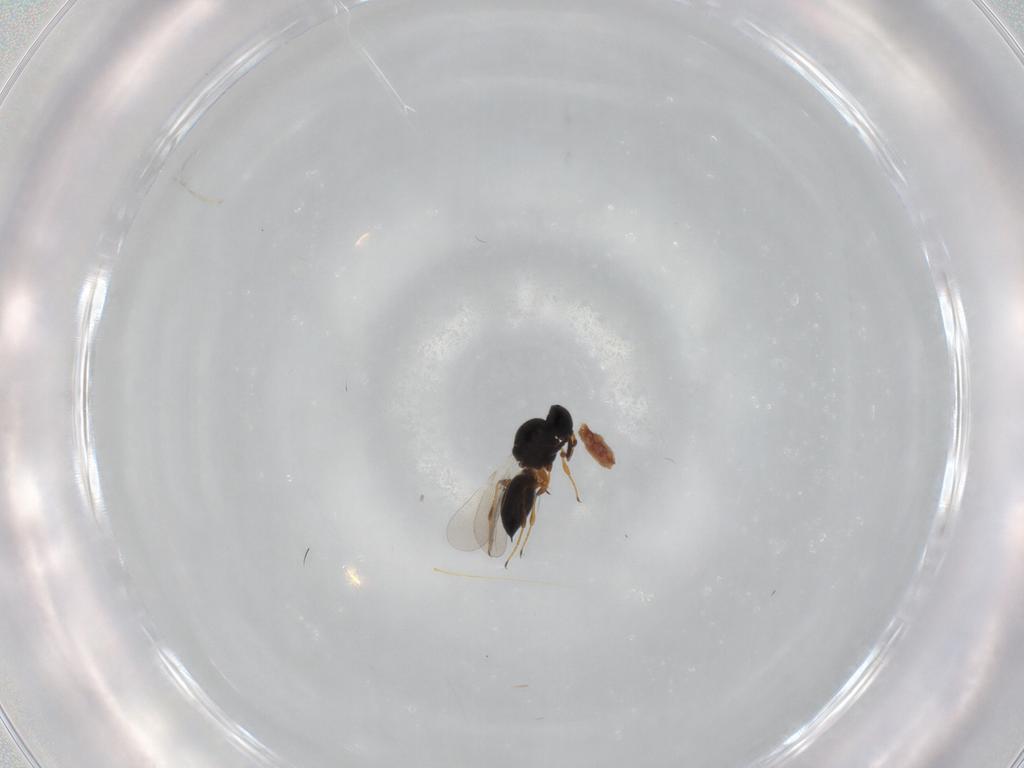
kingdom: Animalia
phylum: Arthropoda
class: Insecta
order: Hymenoptera
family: Platygastridae
